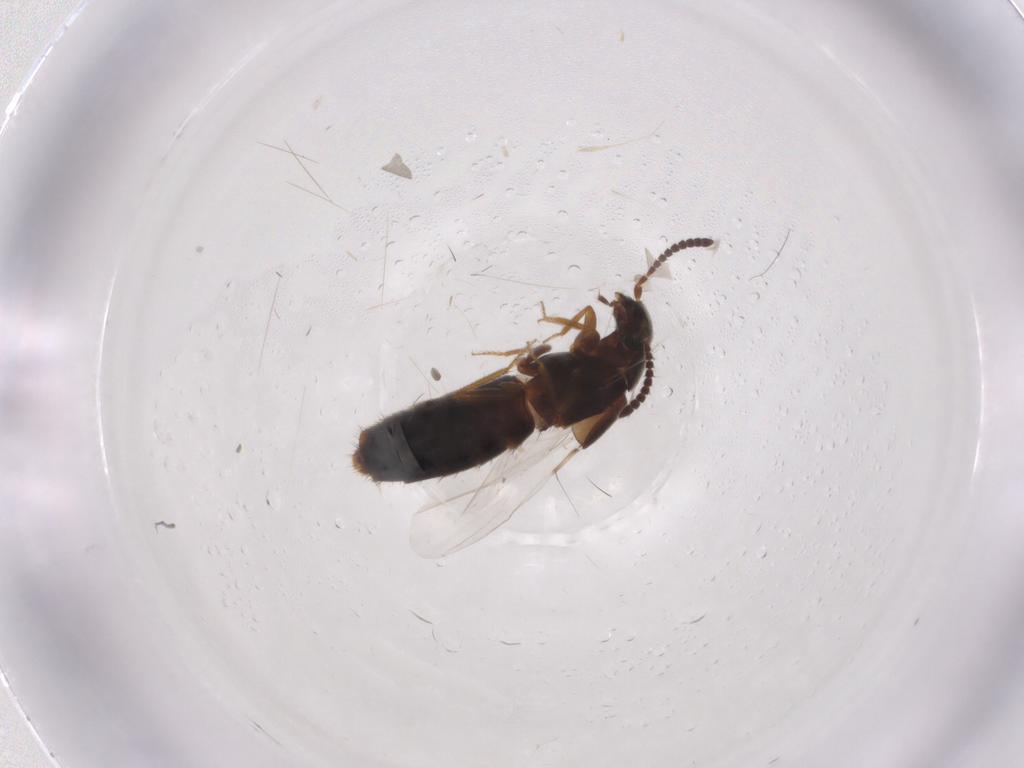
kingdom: Animalia
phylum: Arthropoda
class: Insecta
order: Lepidoptera
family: Nymphalidae
